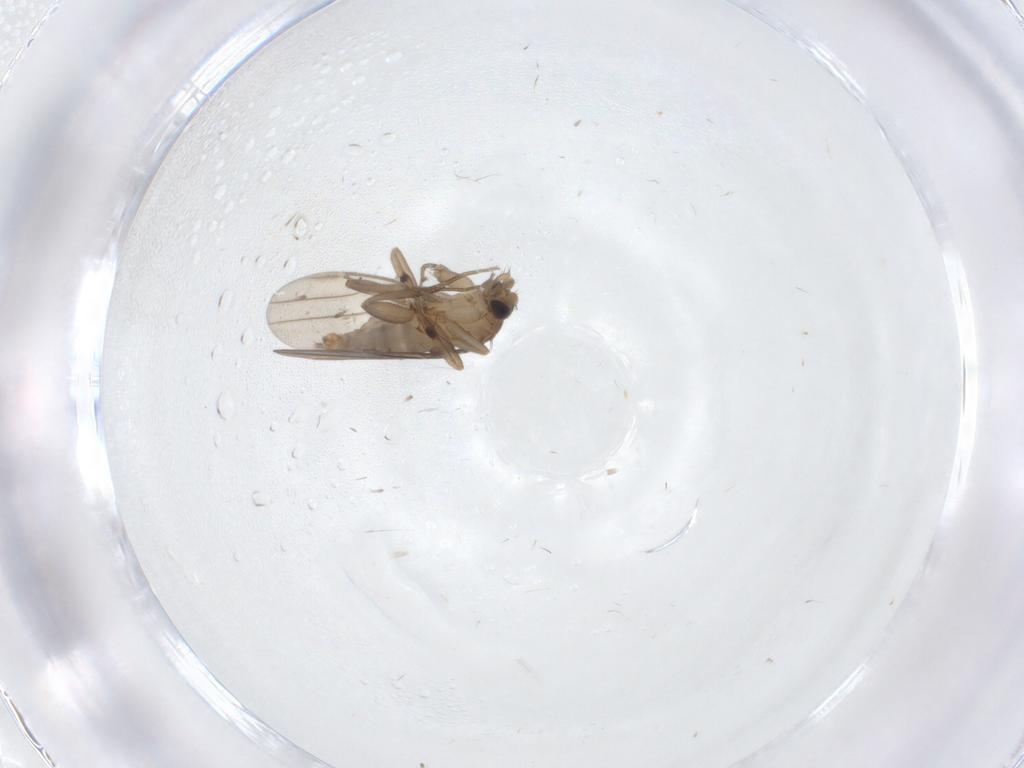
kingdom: Animalia
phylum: Arthropoda
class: Insecta
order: Diptera
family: Cecidomyiidae
